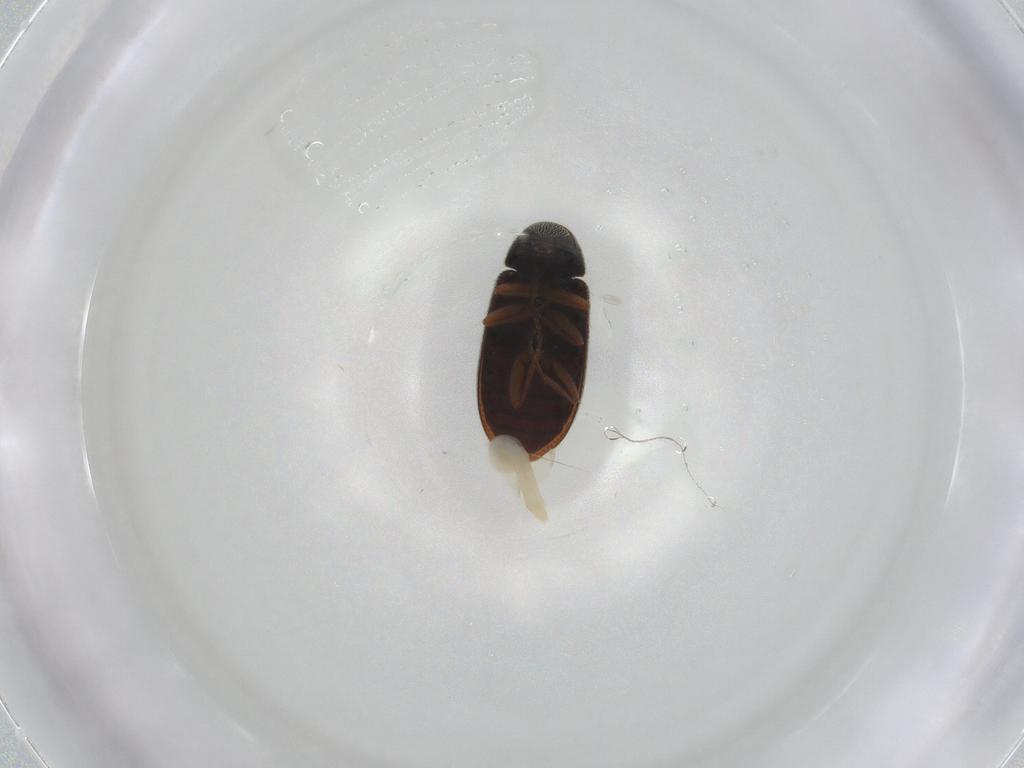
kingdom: Animalia
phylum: Arthropoda
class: Insecta
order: Coleoptera
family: Rhadalidae
